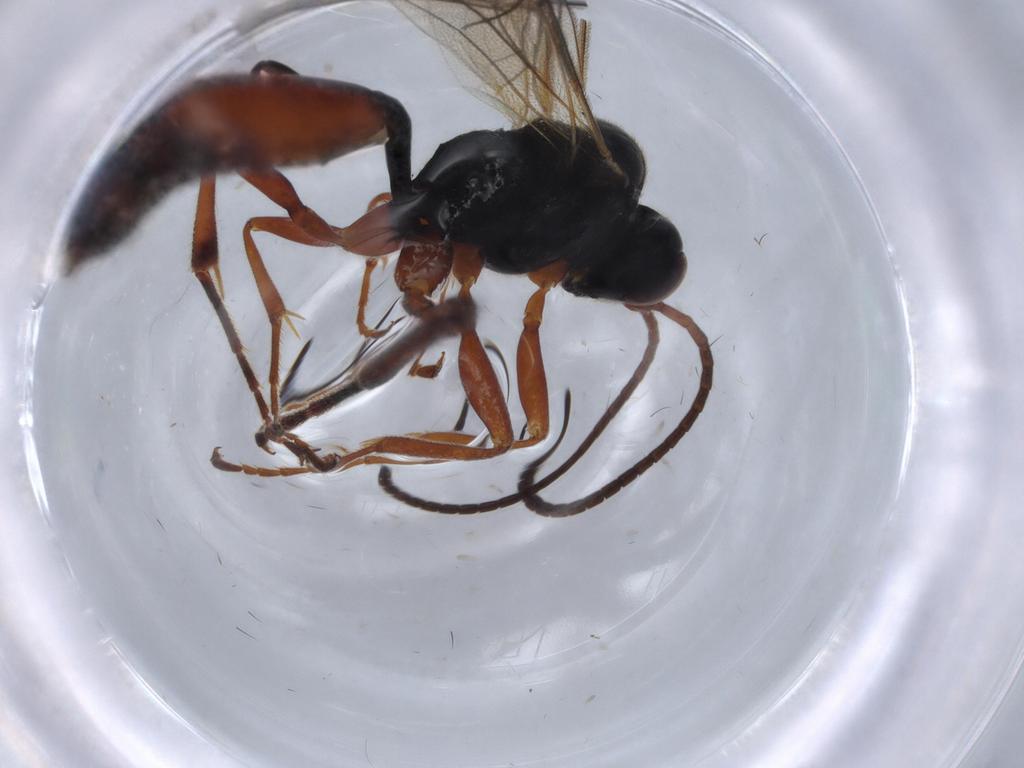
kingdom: Animalia
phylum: Arthropoda
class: Insecta
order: Hymenoptera
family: Ichneumonidae
